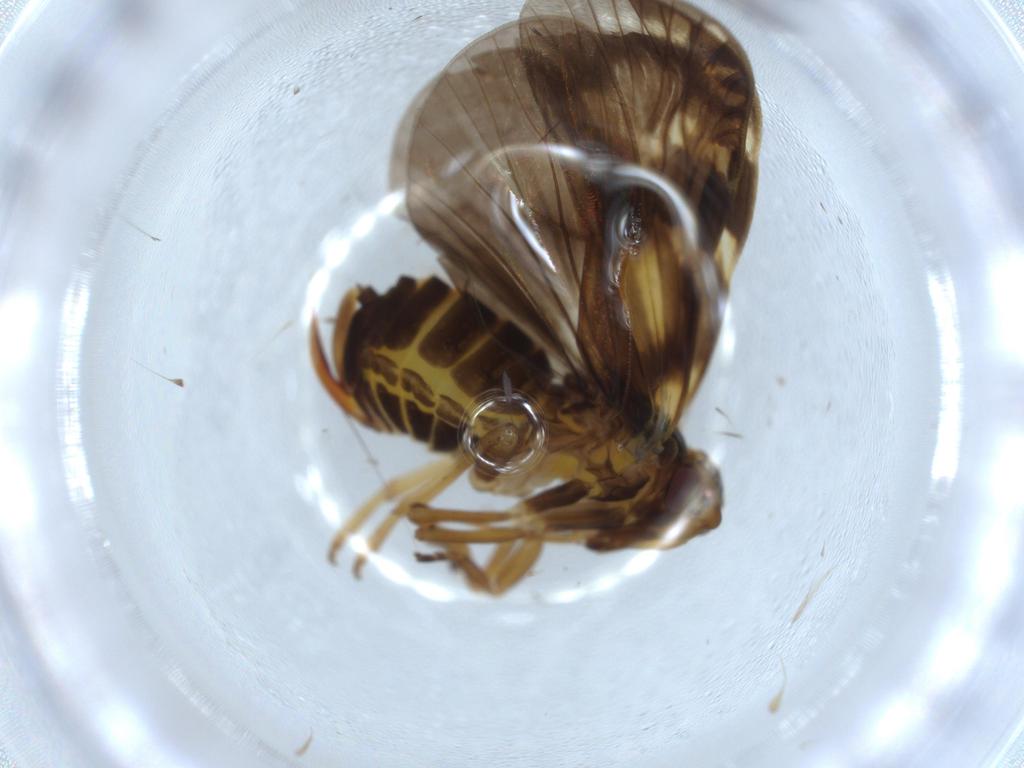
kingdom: Animalia
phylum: Arthropoda
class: Insecta
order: Hemiptera
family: Cixiidae
